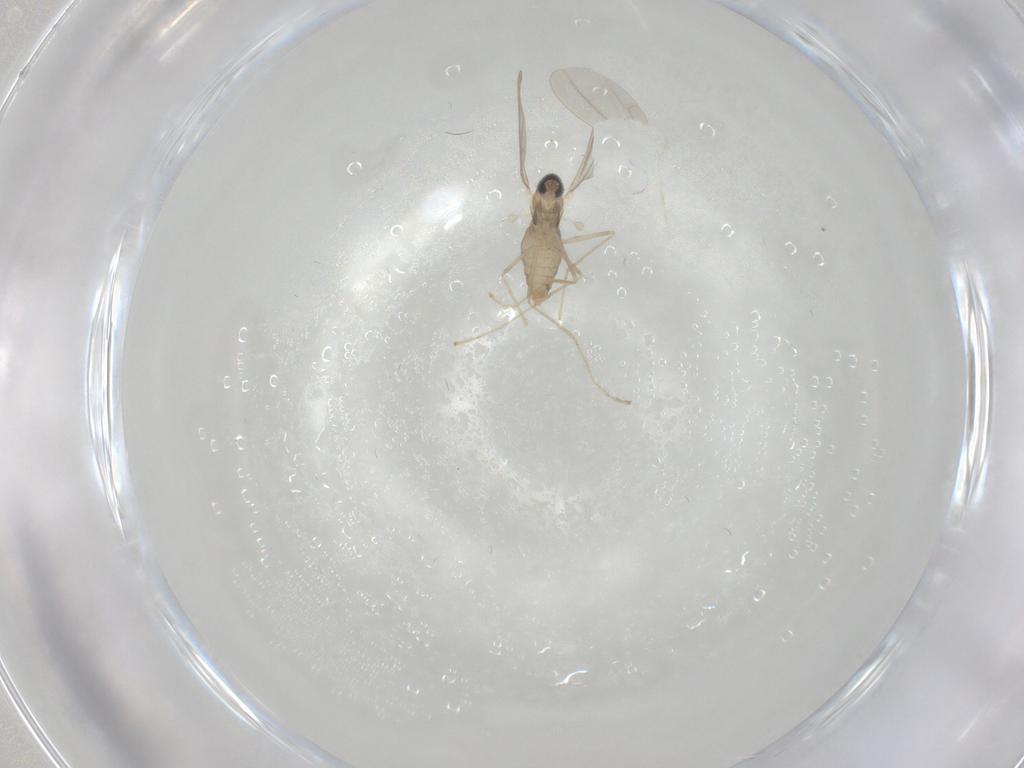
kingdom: Animalia
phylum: Arthropoda
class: Insecta
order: Diptera
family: Cecidomyiidae
